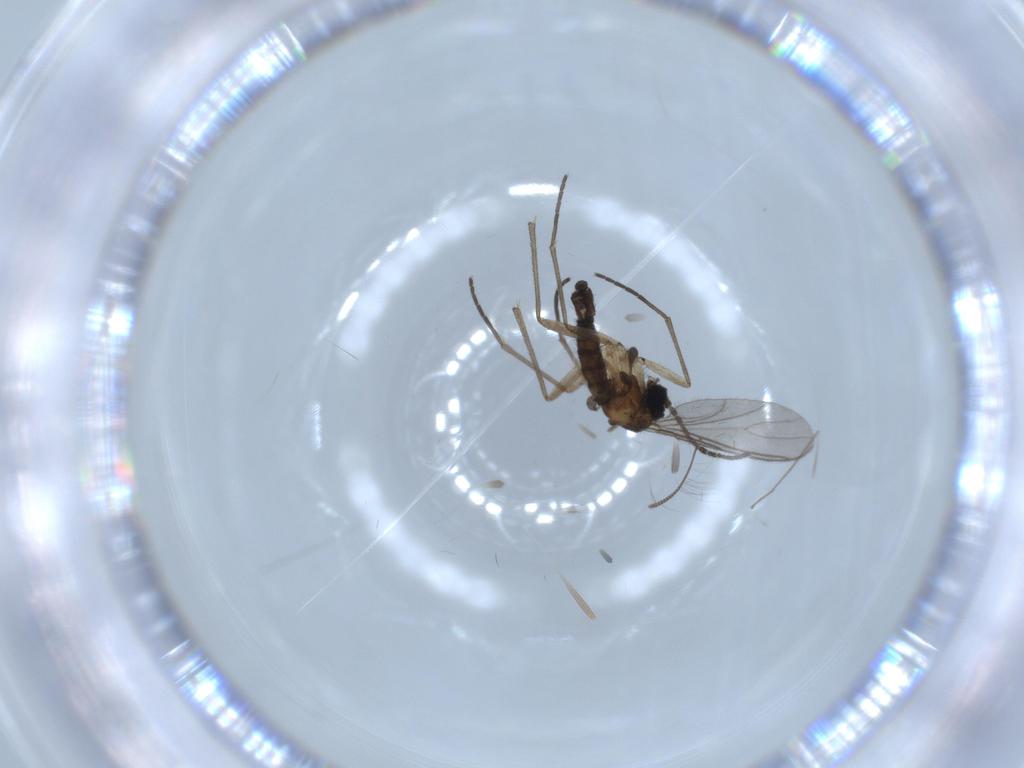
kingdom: Animalia
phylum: Arthropoda
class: Insecta
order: Diptera
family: Sciaridae
